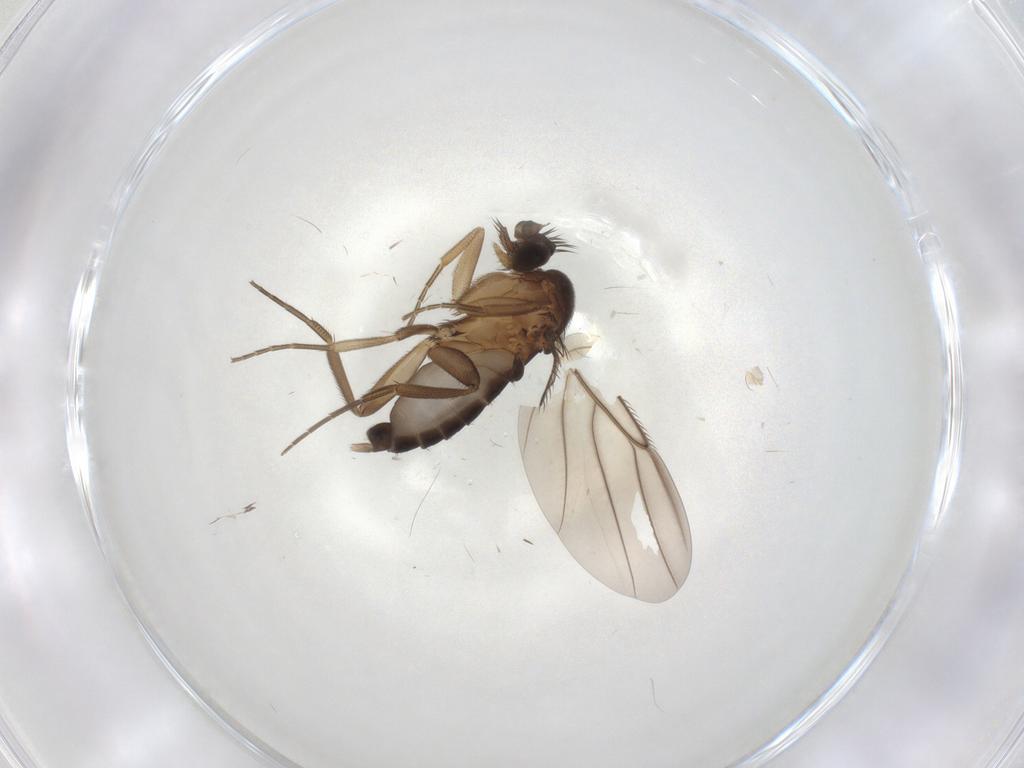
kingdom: Animalia
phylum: Arthropoda
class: Insecta
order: Diptera
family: Phoridae
